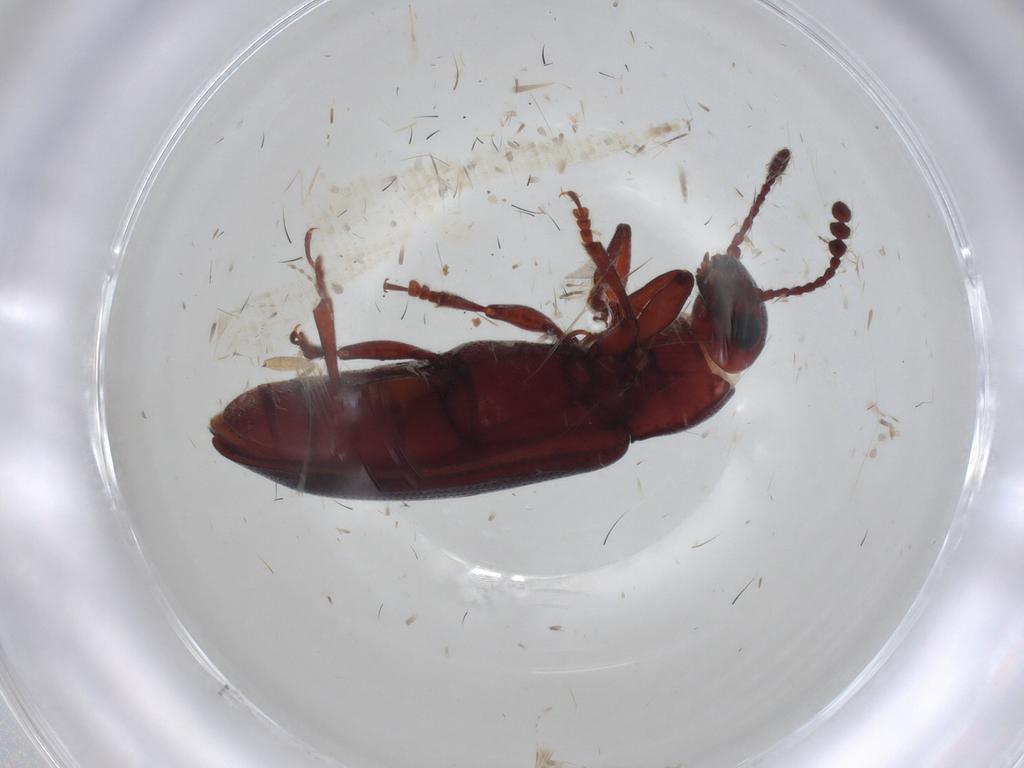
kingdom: Animalia
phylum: Arthropoda
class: Insecta
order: Coleoptera
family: Erotylidae
